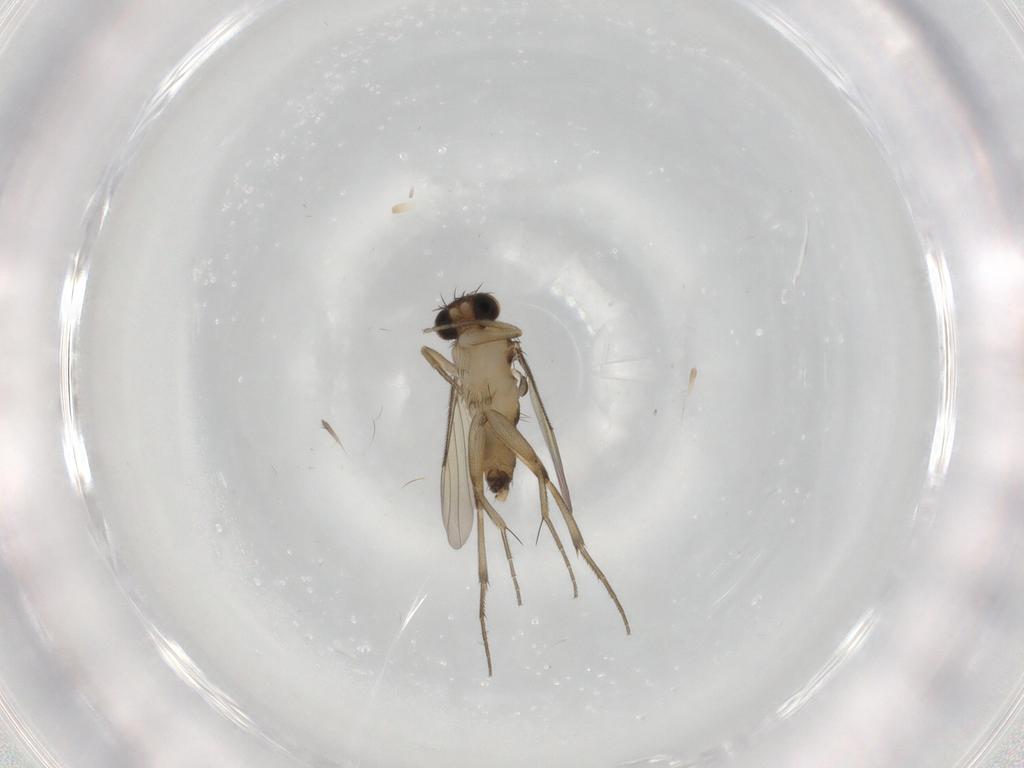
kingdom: Animalia
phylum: Arthropoda
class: Insecta
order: Diptera
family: Phoridae
